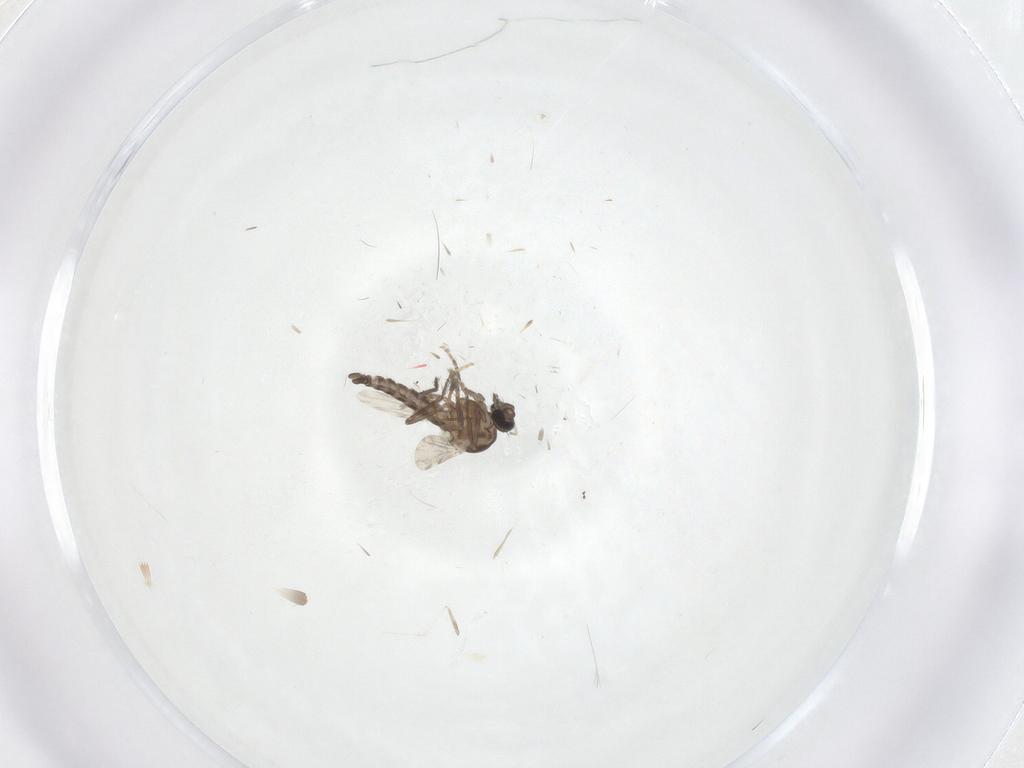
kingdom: Animalia
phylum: Arthropoda
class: Insecta
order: Diptera
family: Ceratopogonidae
